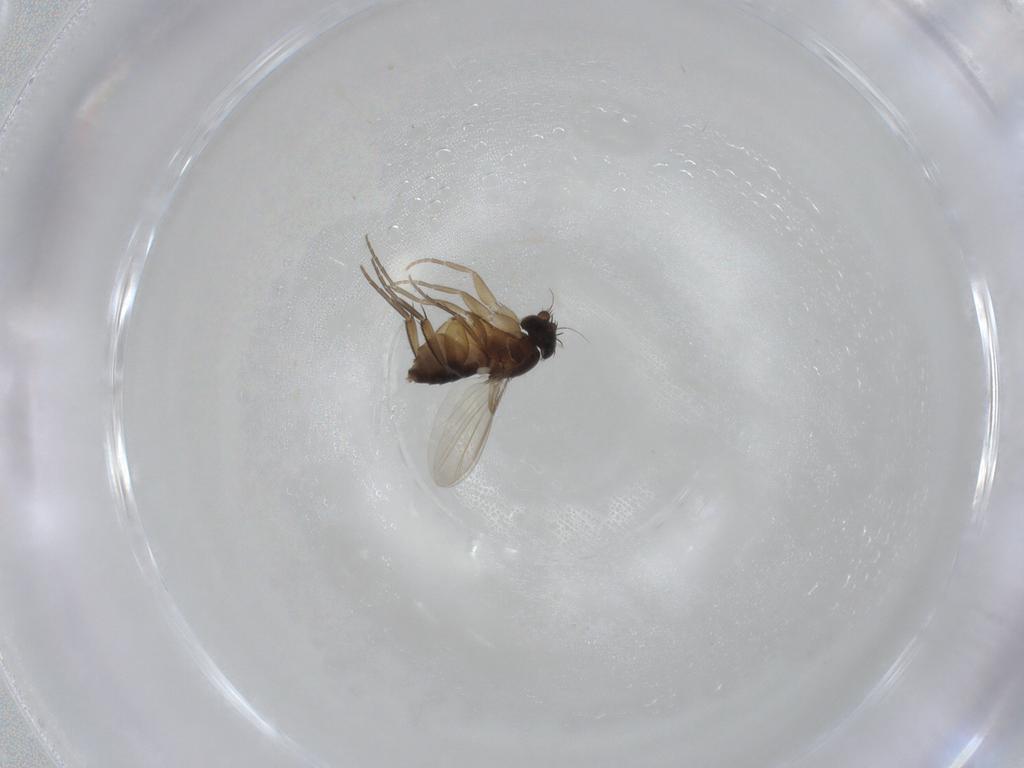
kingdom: Animalia
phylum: Arthropoda
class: Insecta
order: Diptera
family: Phoridae
